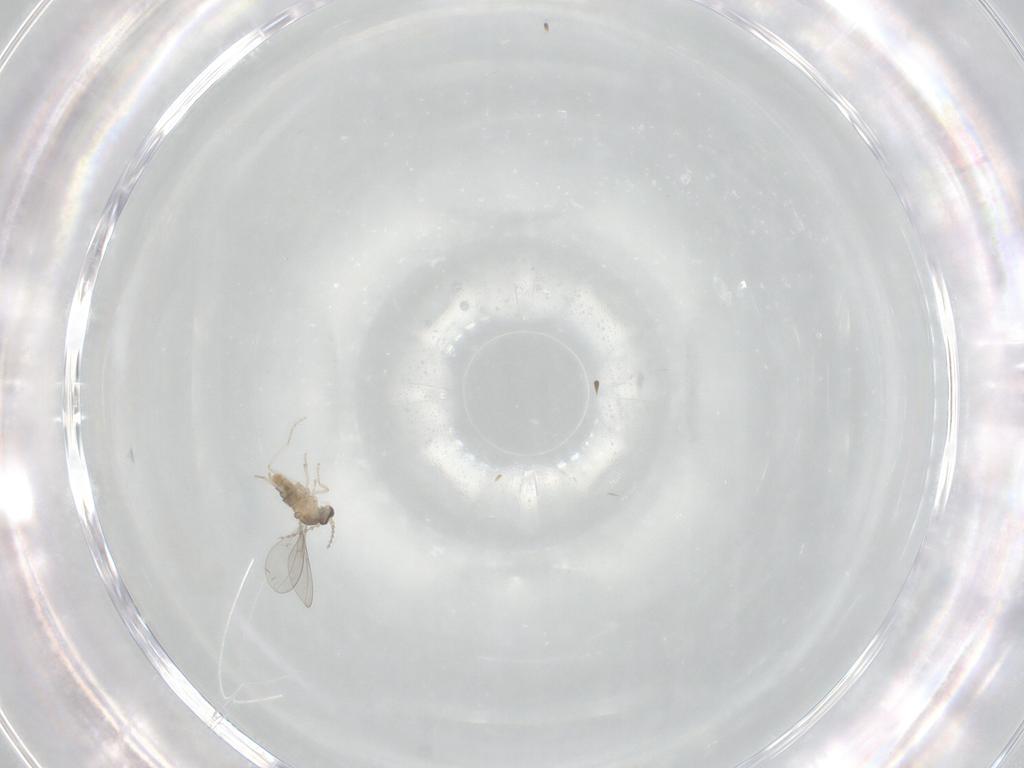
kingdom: Animalia
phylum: Arthropoda
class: Insecta
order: Diptera
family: Cecidomyiidae
